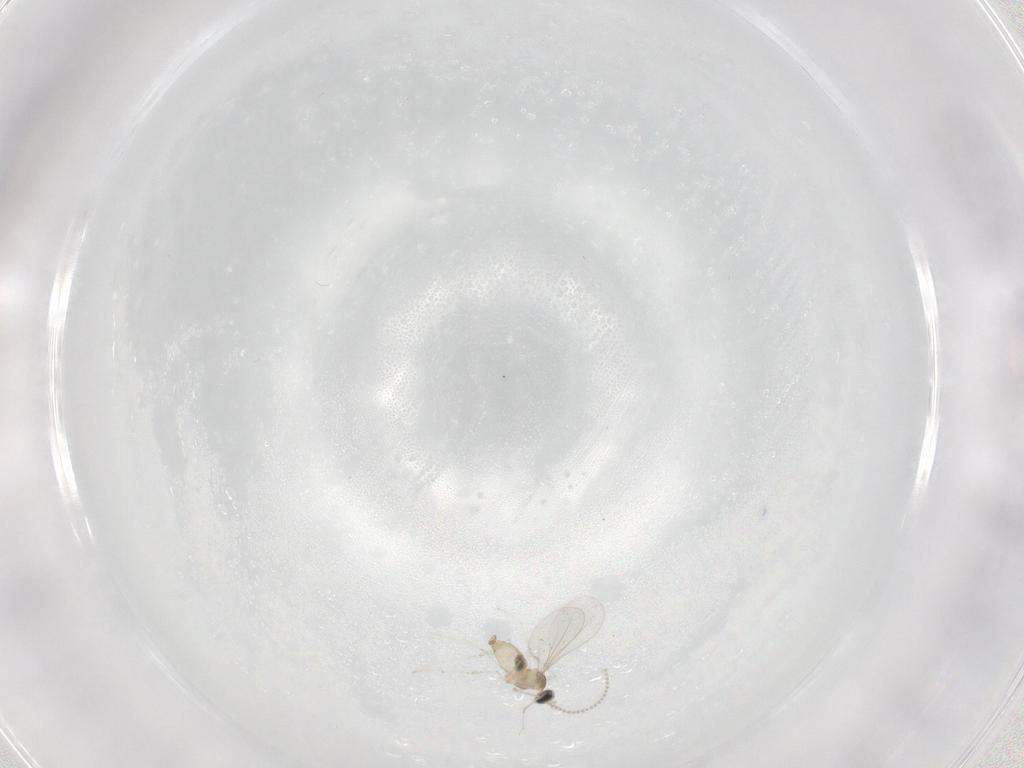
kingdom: Animalia
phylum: Arthropoda
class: Insecta
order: Diptera
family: Cecidomyiidae
